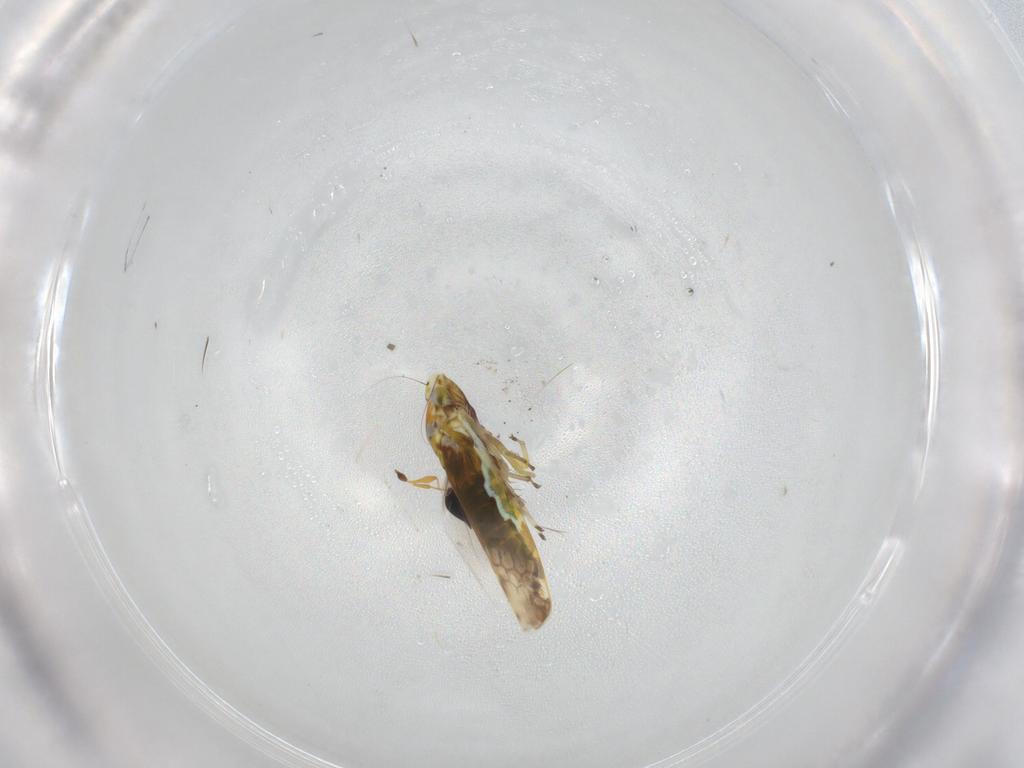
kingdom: Animalia
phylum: Arthropoda
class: Insecta
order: Hemiptera
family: Cicadellidae
